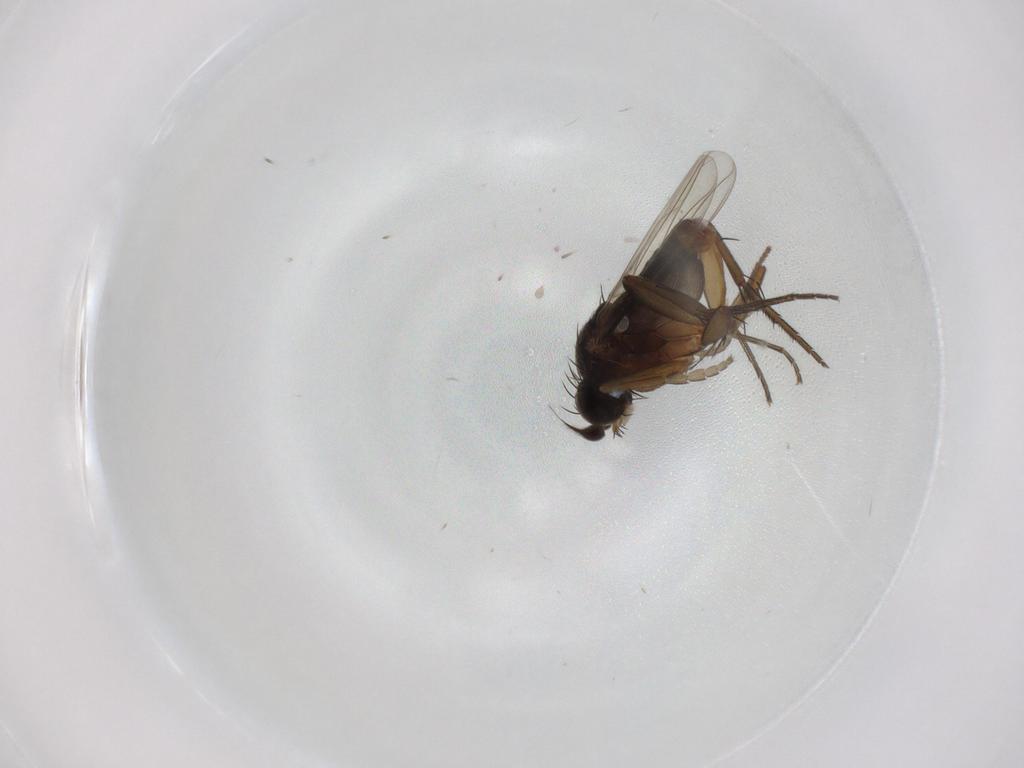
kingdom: Animalia
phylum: Arthropoda
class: Insecta
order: Diptera
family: Phoridae
